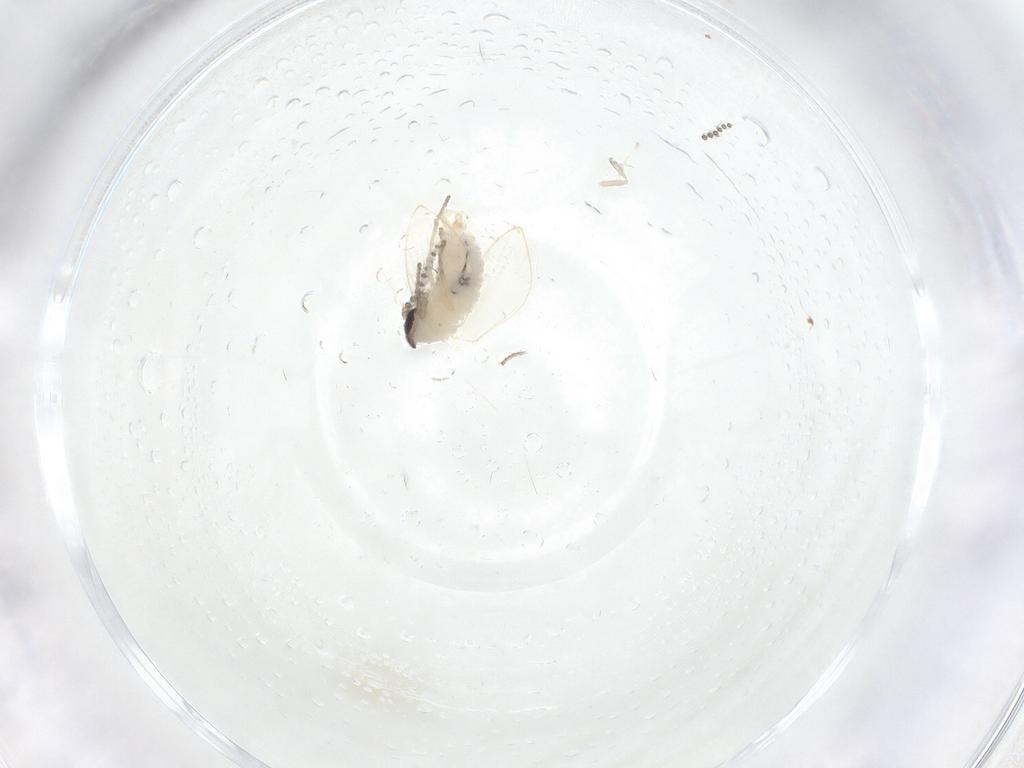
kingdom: Animalia
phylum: Arthropoda
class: Insecta
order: Diptera
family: Psychodidae
